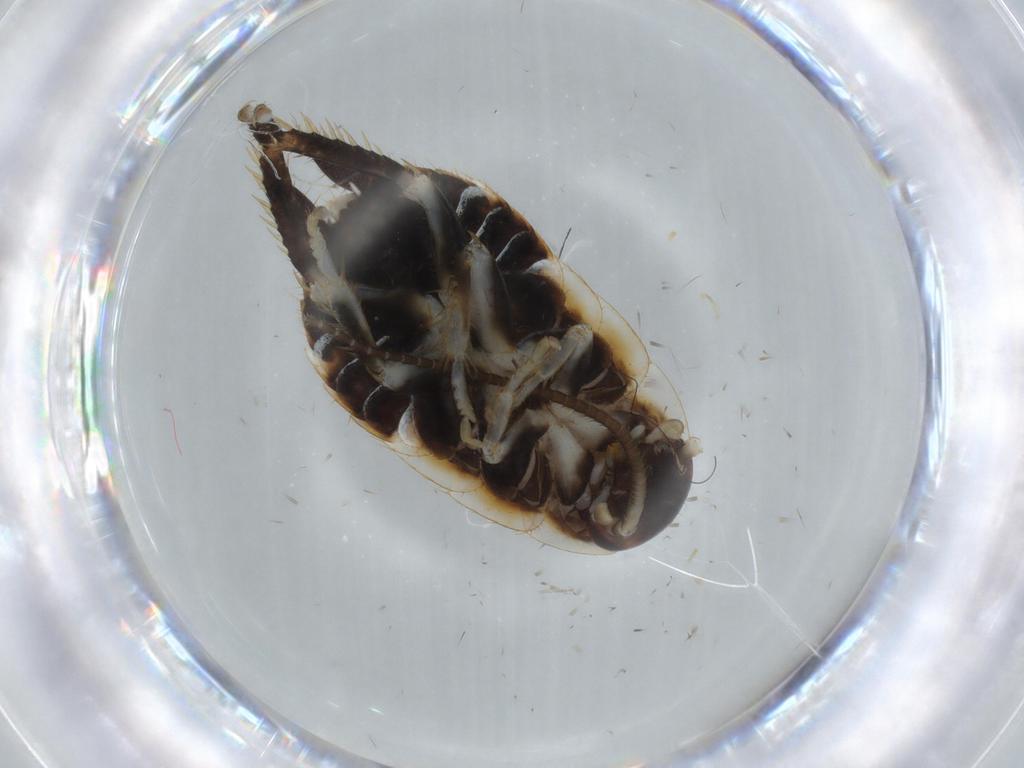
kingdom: Animalia
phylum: Arthropoda
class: Insecta
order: Blattodea
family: Ectobiidae
